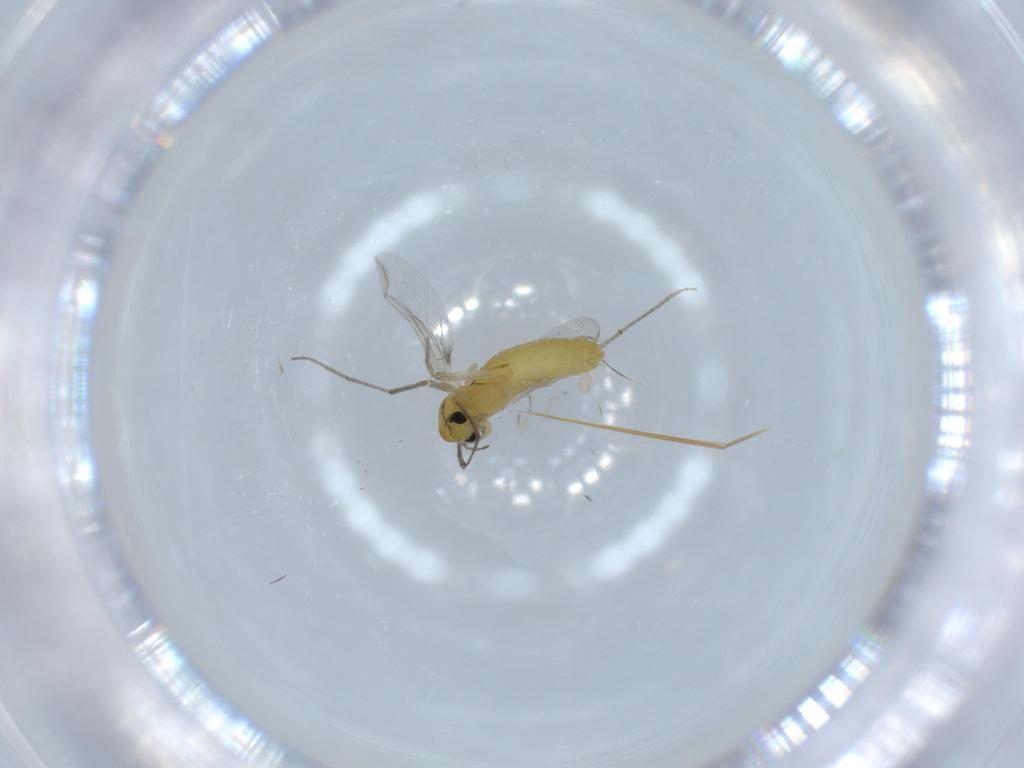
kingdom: Animalia
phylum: Arthropoda
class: Insecta
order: Diptera
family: Chironomidae
